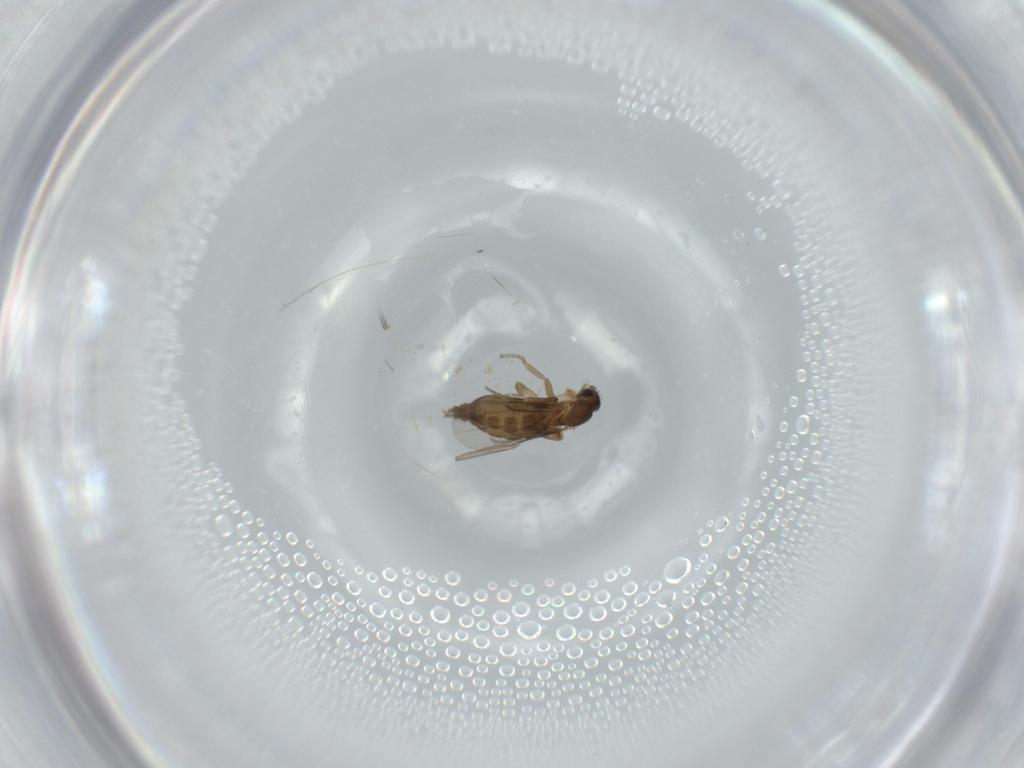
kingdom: Animalia
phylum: Arthropoda
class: Insecta
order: Diptera
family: Phoridae
